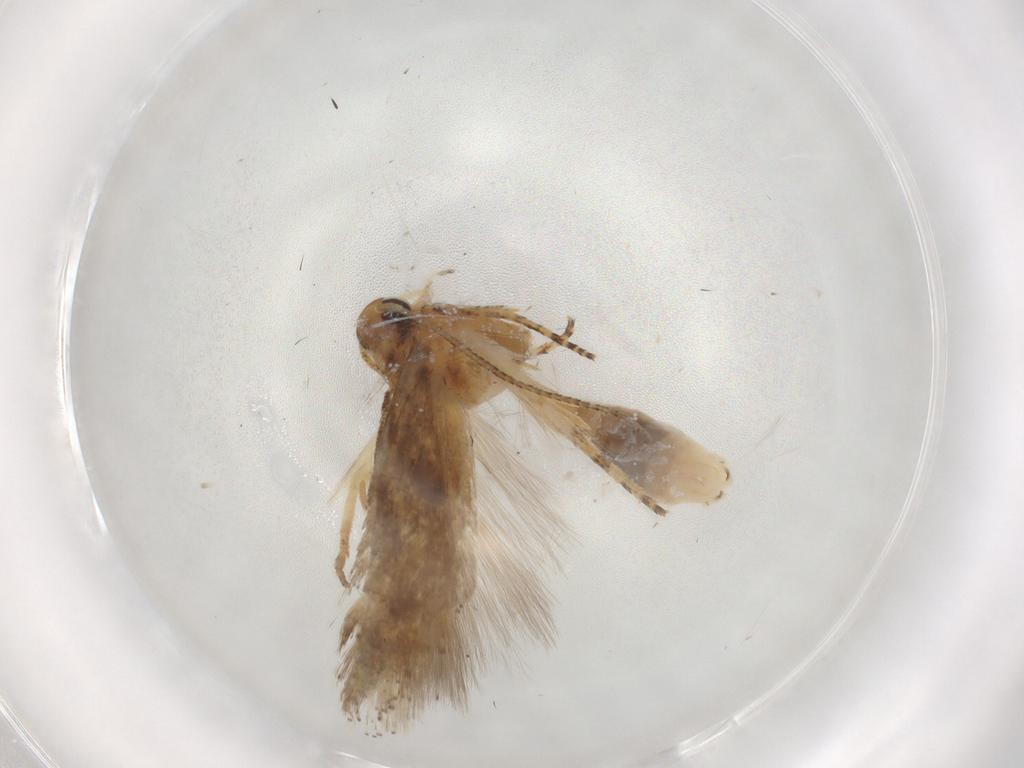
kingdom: Animalia
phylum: Arthropoda
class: Insecta
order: Lepidoptera
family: Gelechiidae
